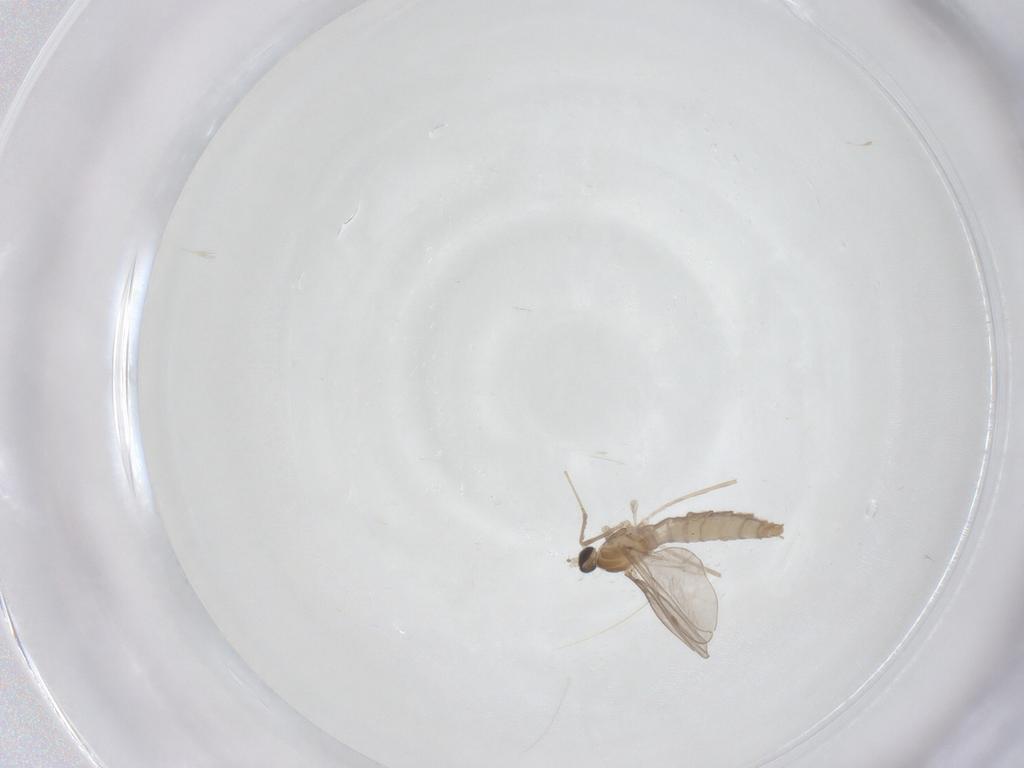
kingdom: Animalia
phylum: Arthropoda
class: Insecta
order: Diptera
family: Cecidomyiidae
